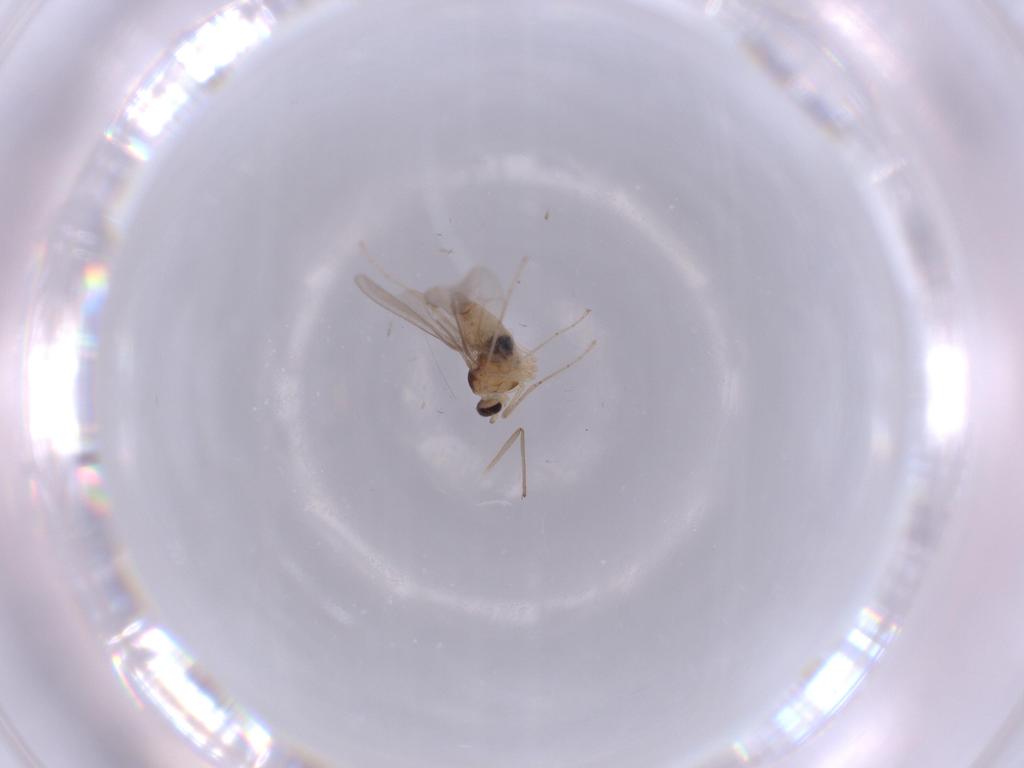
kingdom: Animalia
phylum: Arthropoda
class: Insecta
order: Diptera
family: Cecidomyiidae
